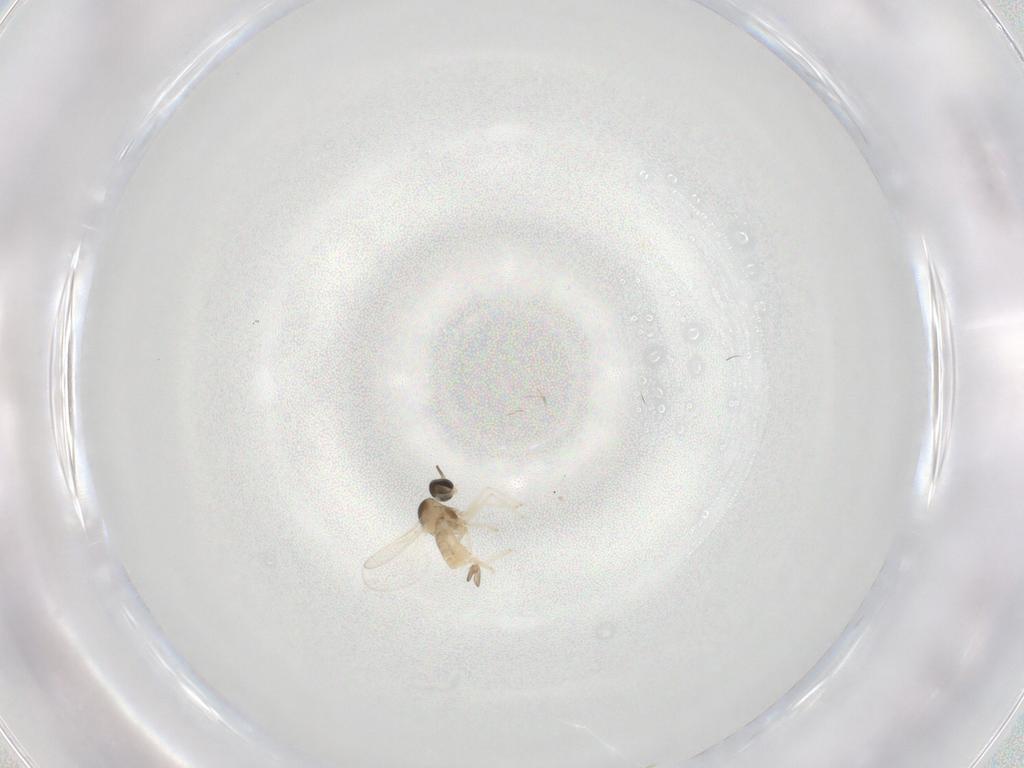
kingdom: Animalia
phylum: Arthropoda
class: Insecta
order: Diptera
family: Cecidomyiidae
